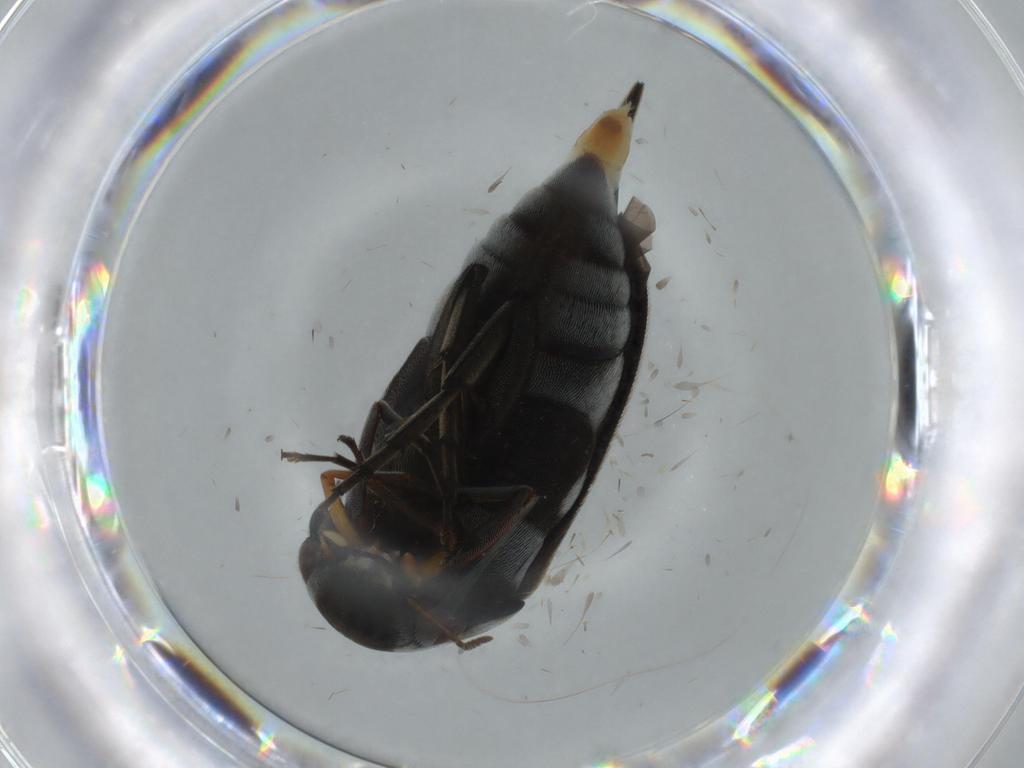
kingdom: Animalia
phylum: Arthropoda
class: Insecta
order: Coleoptera
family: Mordellidae
